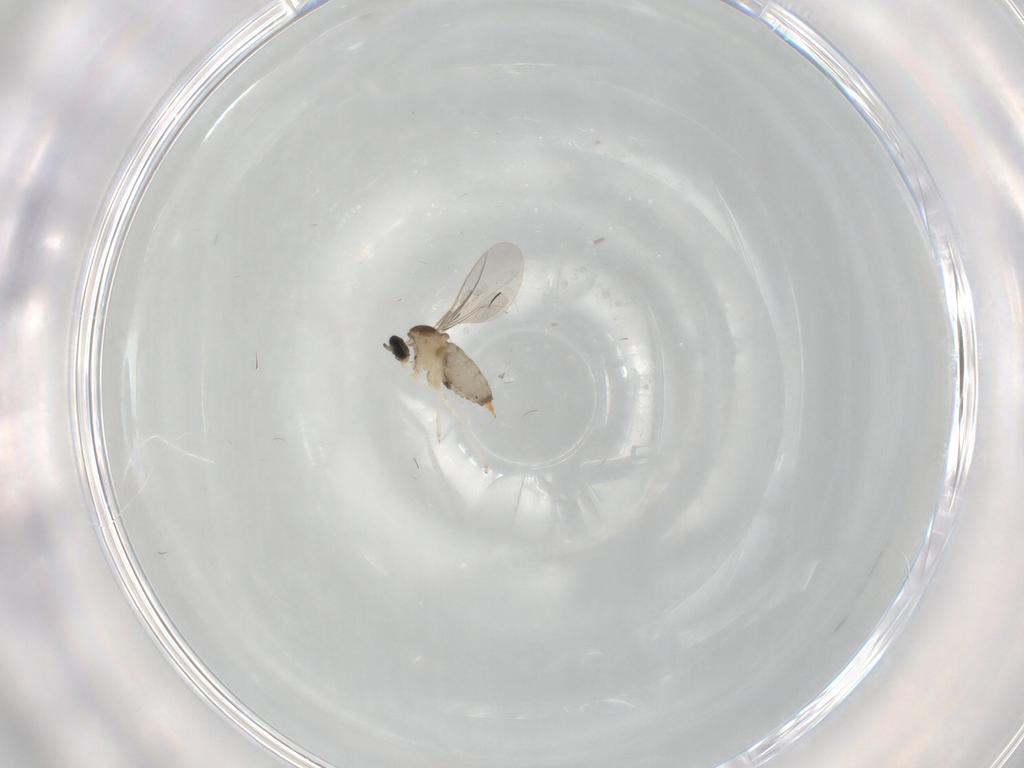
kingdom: Animalia
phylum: Arthropoda
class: Insecta
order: Diptera
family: Cecidomyiidae
